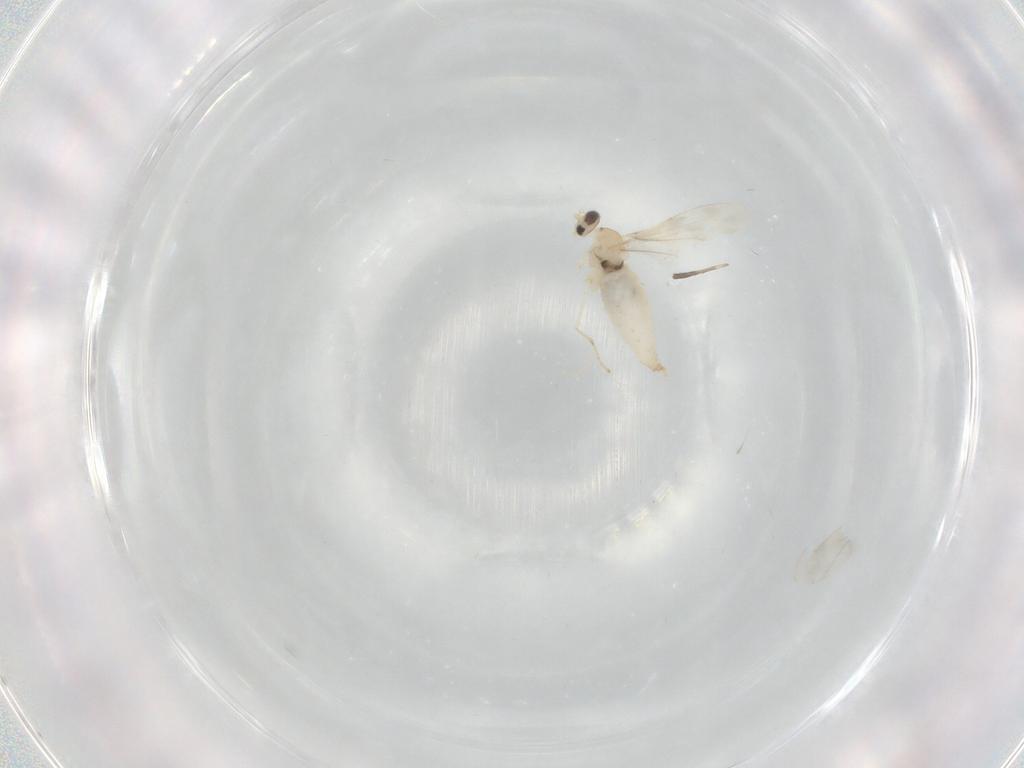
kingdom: Animalia
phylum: Arthropoda
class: Insecta
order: Diptera
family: Cecidomyiidae
